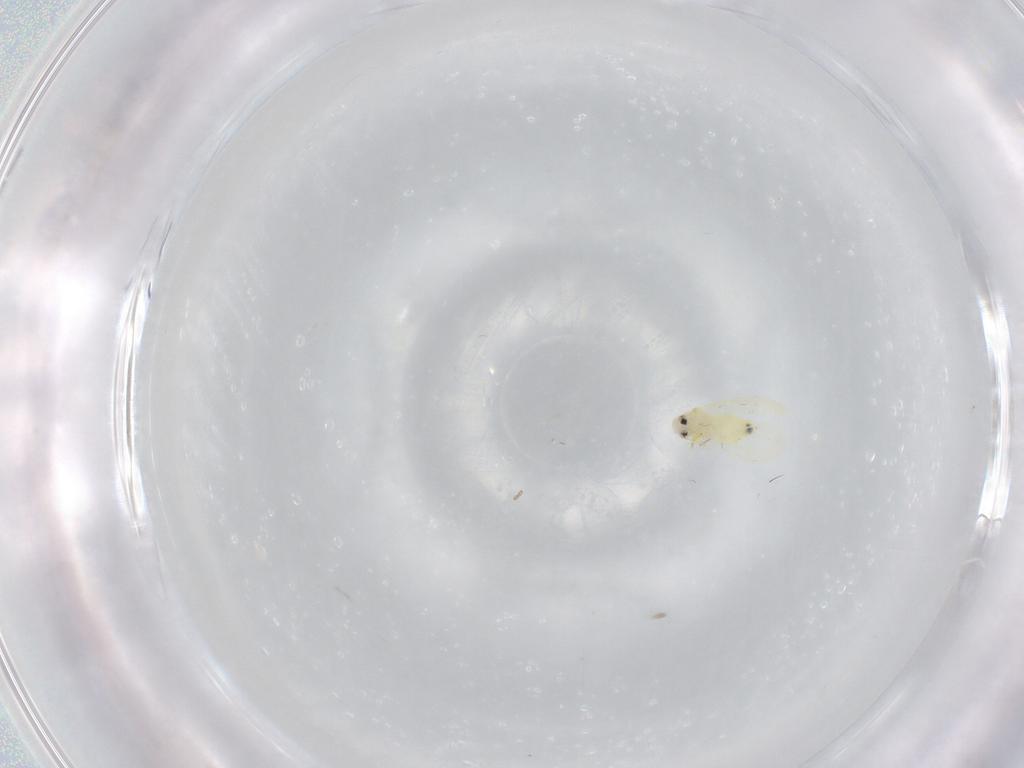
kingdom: Animalia
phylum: Arthropoda
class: Insecta
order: Hemiptera
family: Aleyrodidae
